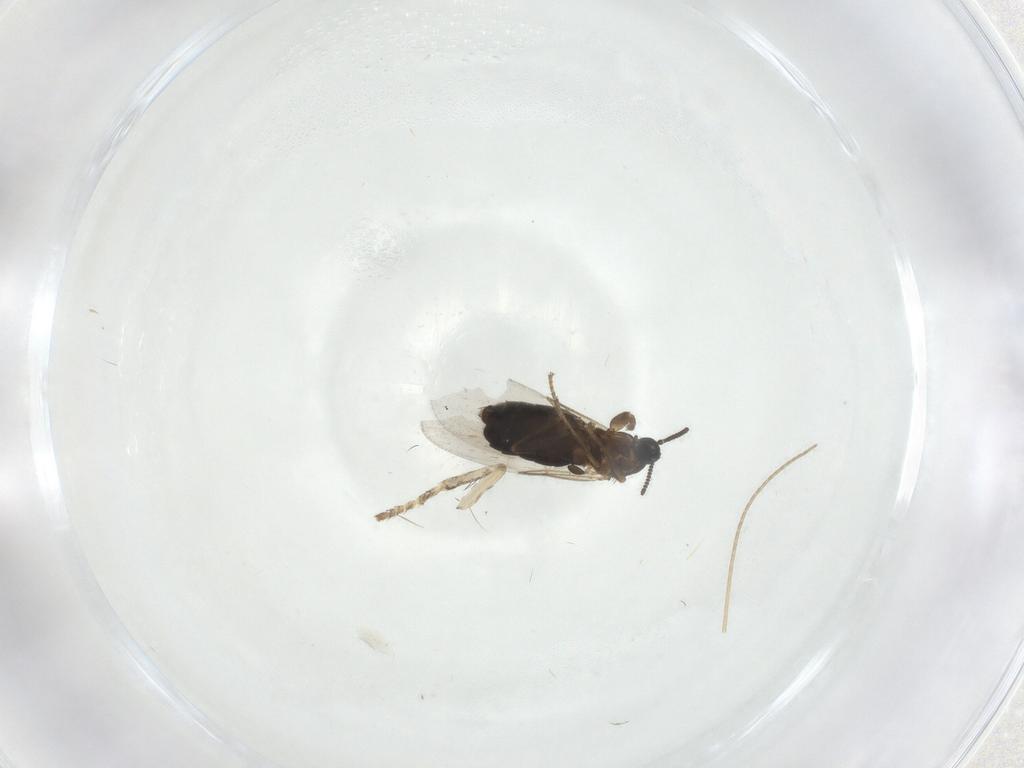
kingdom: Animalia
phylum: Arthropoda
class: Insecta
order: Diptera
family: Scatopsidae
